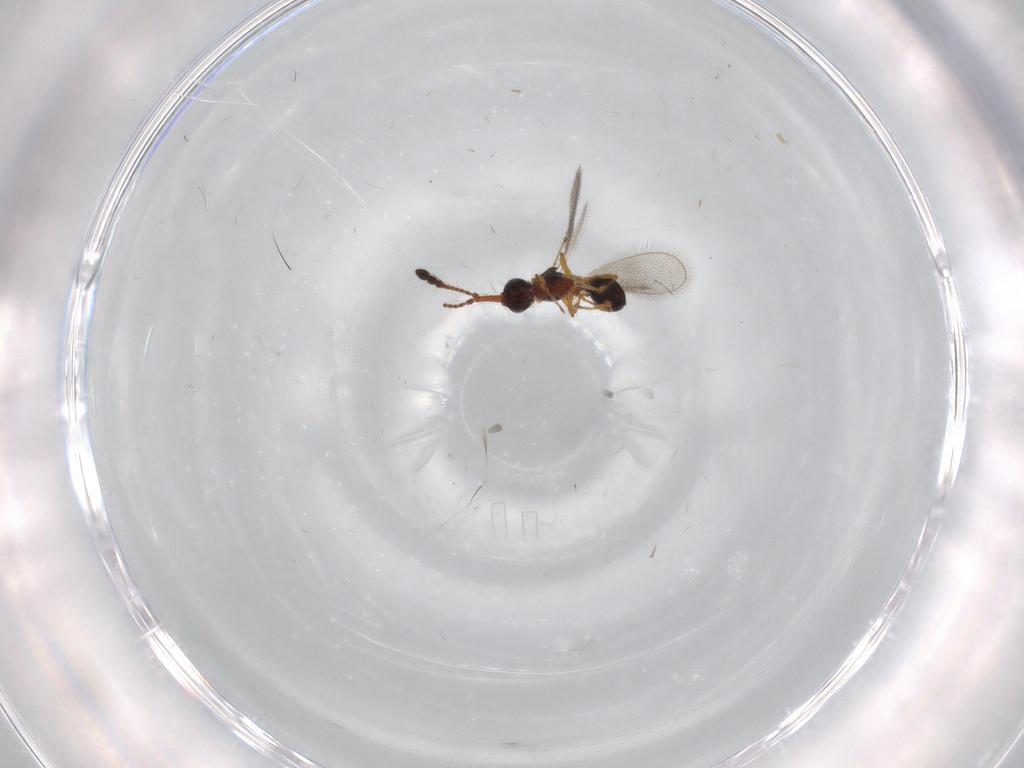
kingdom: Animalia
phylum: Arthropoda
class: Insecta
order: Hymenoptera
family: Diapriidae
